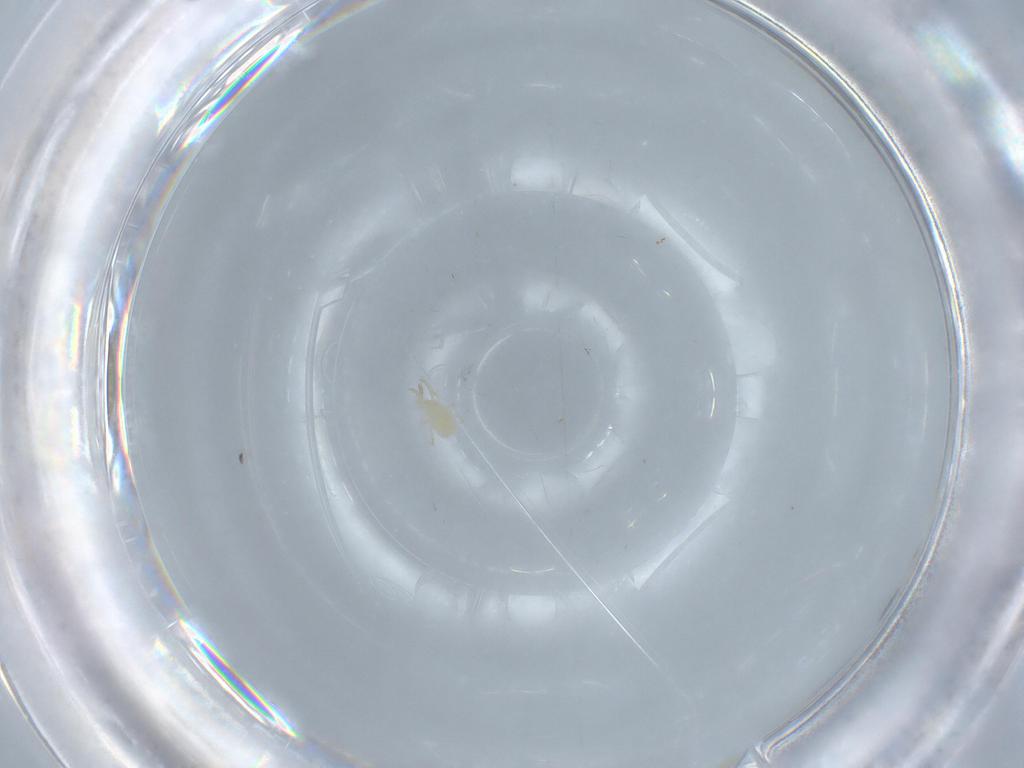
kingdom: Animalia
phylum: Arthropoda
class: Arachnida
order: Mesostigmata
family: Phytoseiidae
